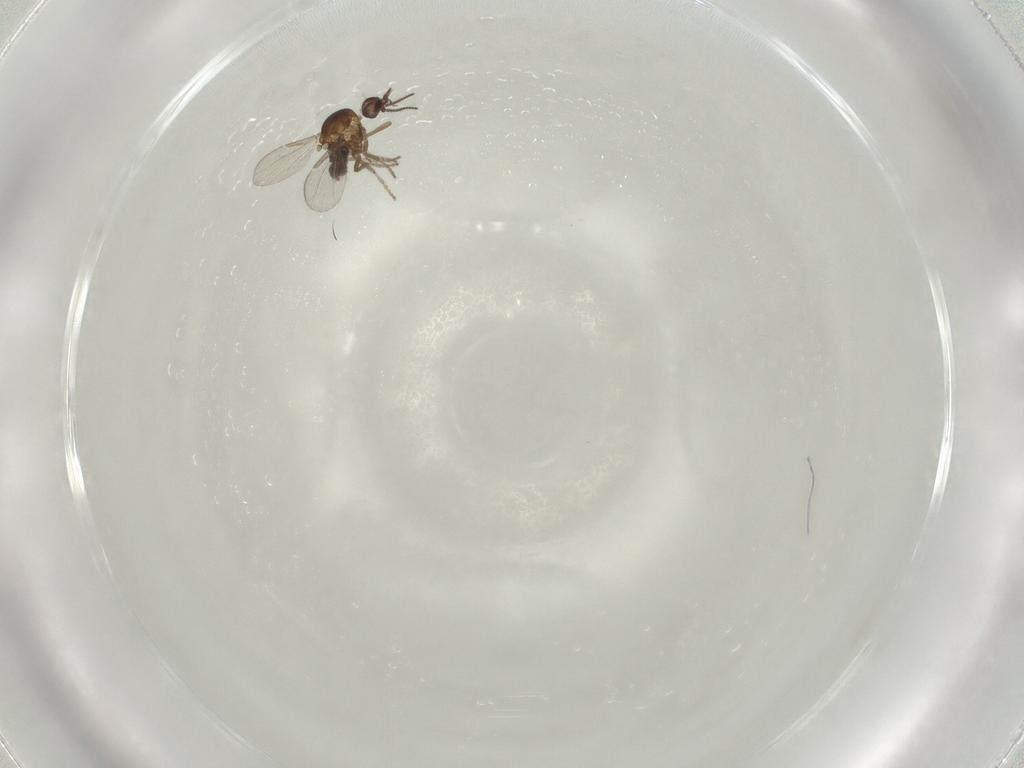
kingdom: Animalia
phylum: Arthropoda
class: Insecta
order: Diptera
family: Ceratopogonidae
